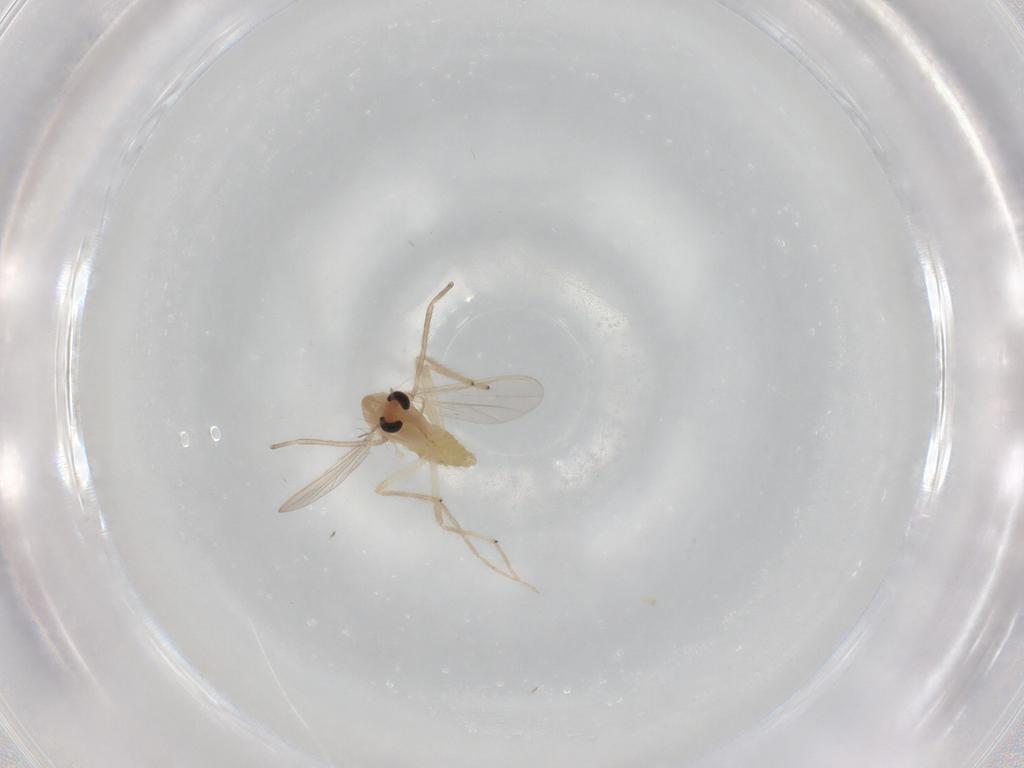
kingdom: Animalia
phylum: Arthropoda
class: Insecta
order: Diptera
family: Chironomidae
